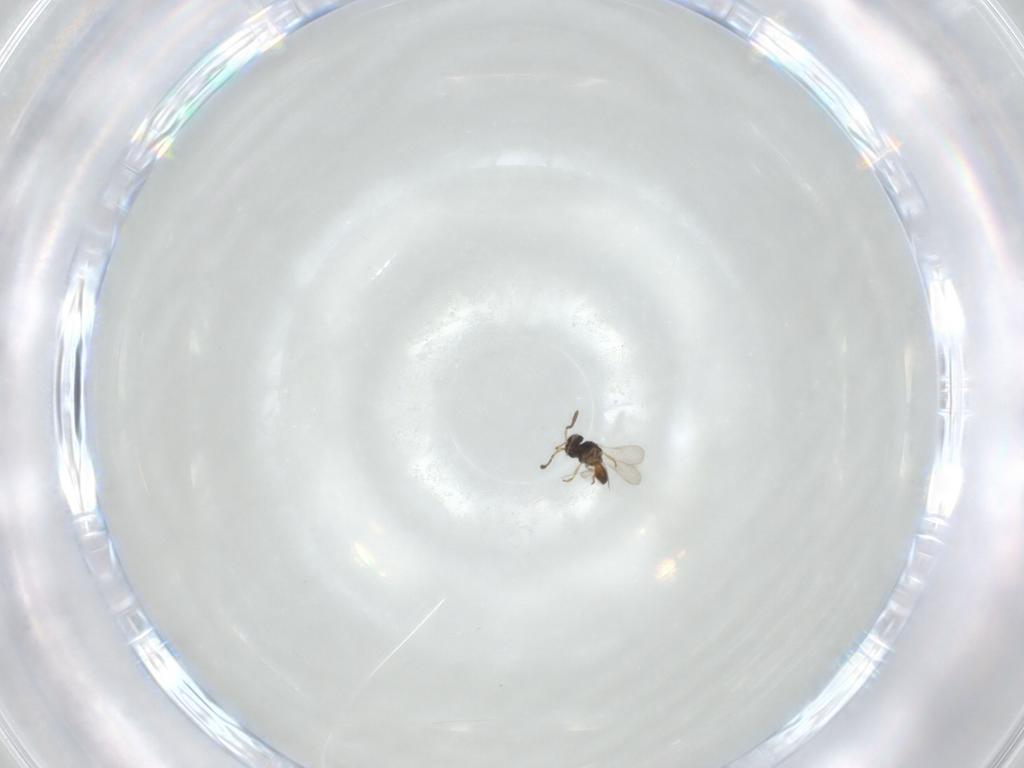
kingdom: Animalia
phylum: Arthropoda
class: Insecta
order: Hymenoptera
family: Scelionidae
